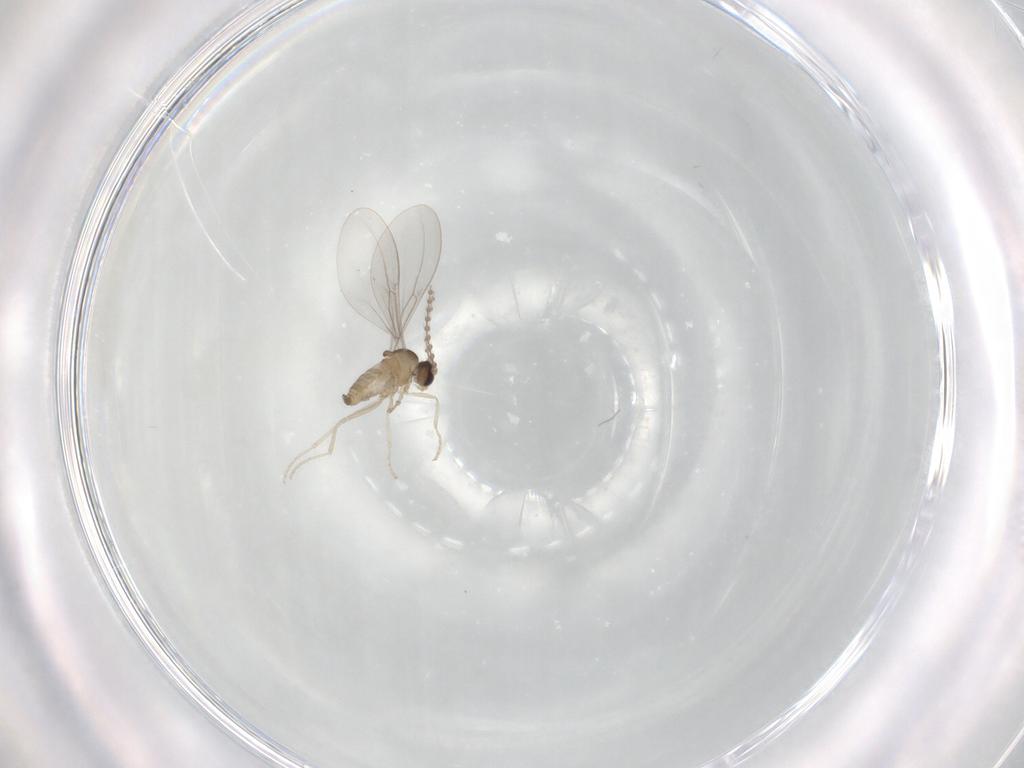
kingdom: Animalia
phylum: Arthropoda
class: Insecta
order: Diptera
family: Cecidomyiidae
